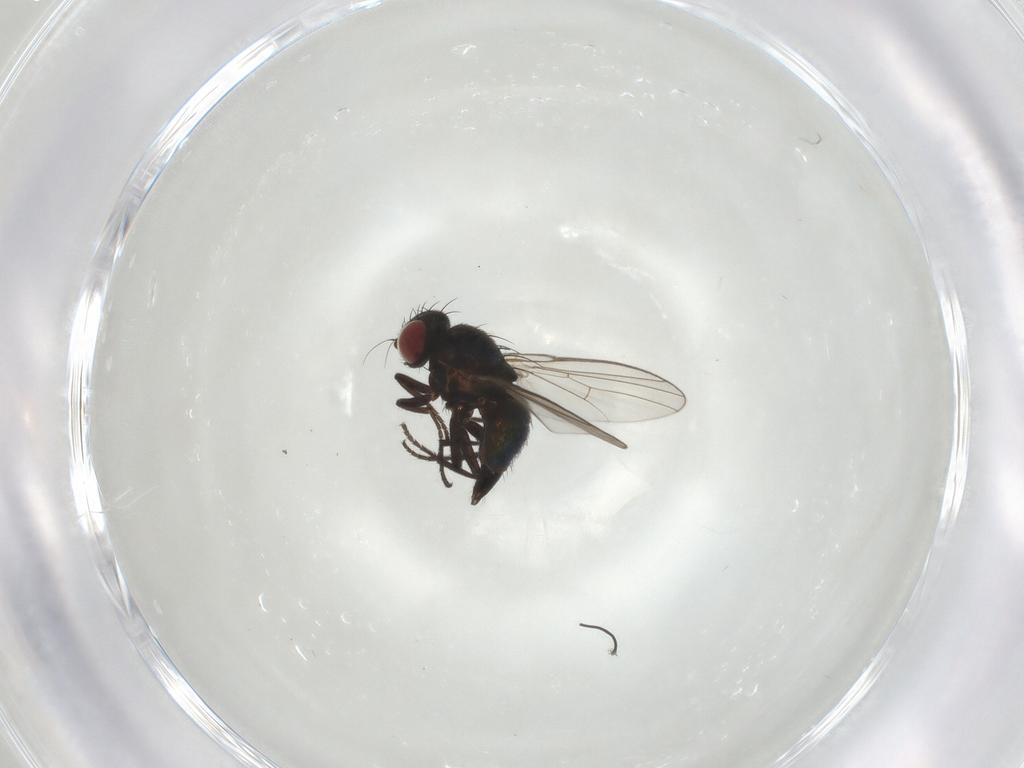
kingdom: Animalia
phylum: Arthropoda
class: Insecta
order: Diptera
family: Agromyzidae
